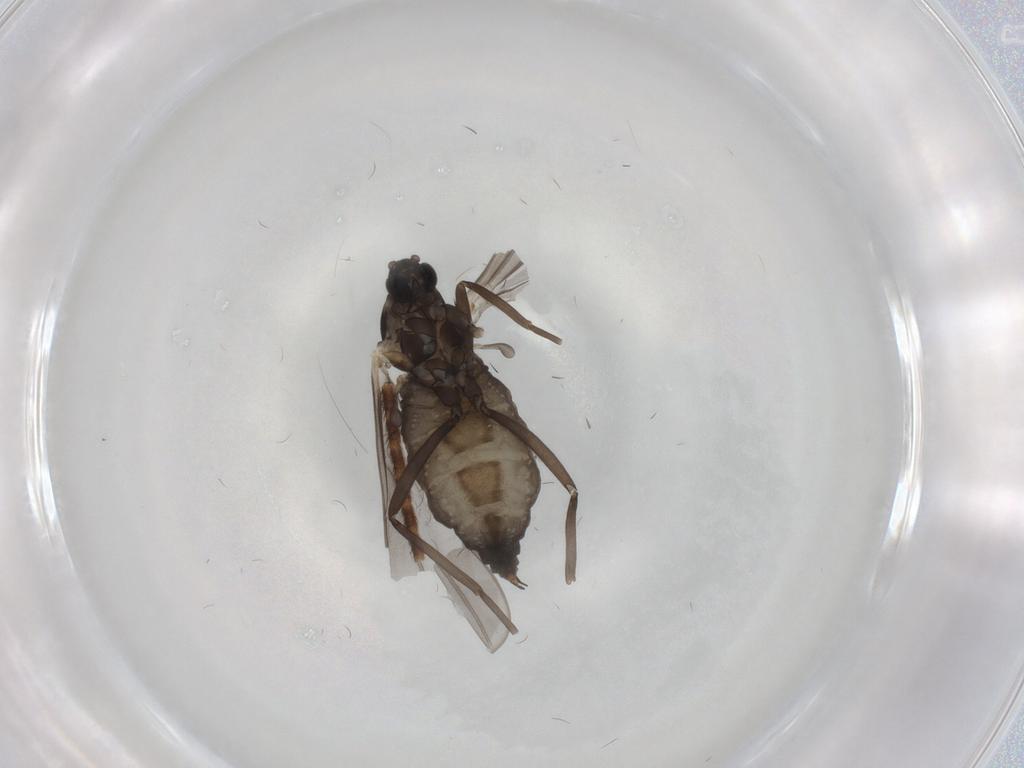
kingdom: Animalia
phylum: Arthropoda
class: Insecta
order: Diptera
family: Cecidomyiidae
